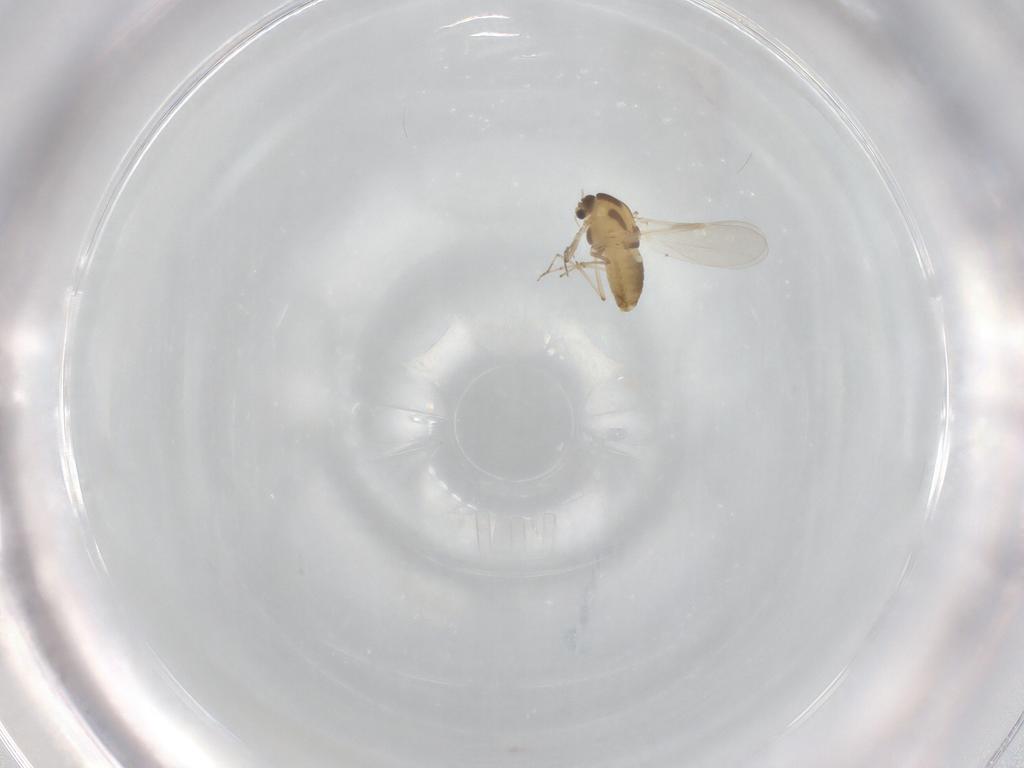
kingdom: Animalia
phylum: Arthropoda
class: Insecta
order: Diptera
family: Chironomidae
